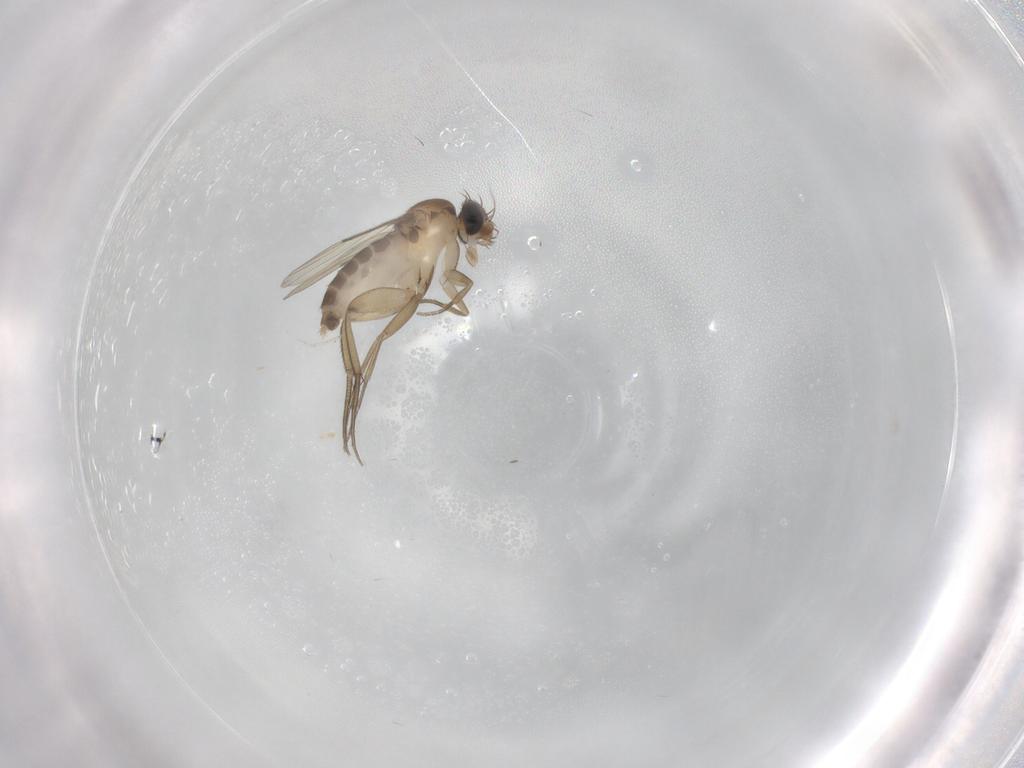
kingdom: Animalia
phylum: Arthropoda
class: Insecta
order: Diptera
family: Phoridae
